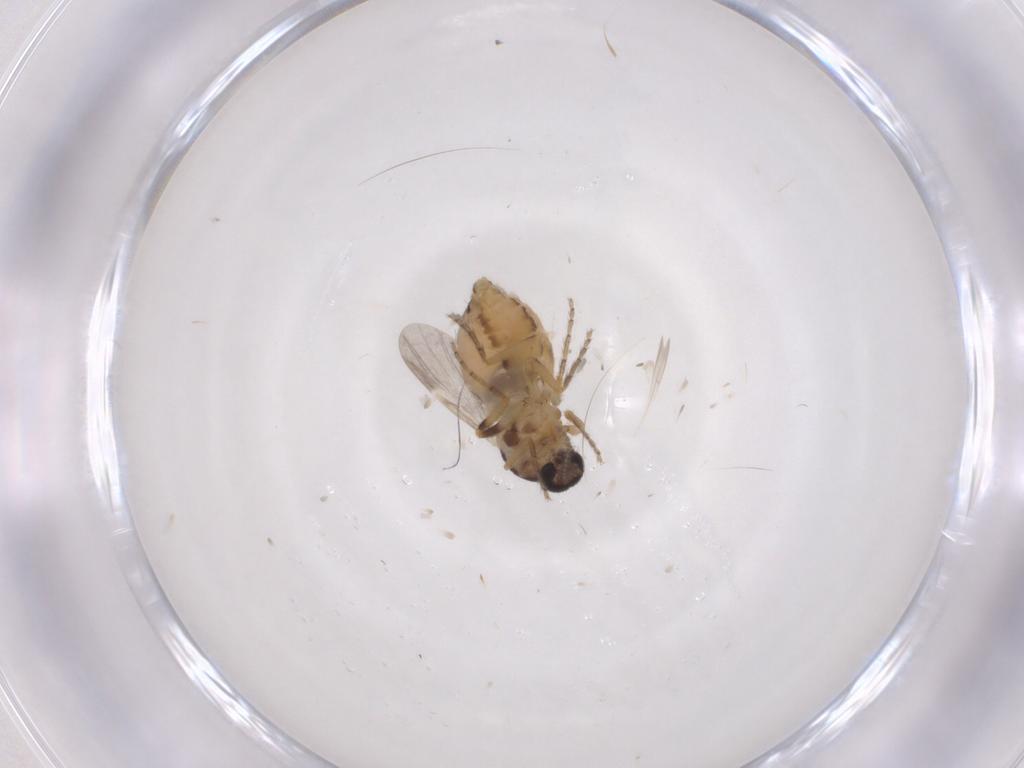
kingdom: Animalia
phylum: Arthropoda
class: Insecta
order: Diptera
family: Ceratopogonidae
